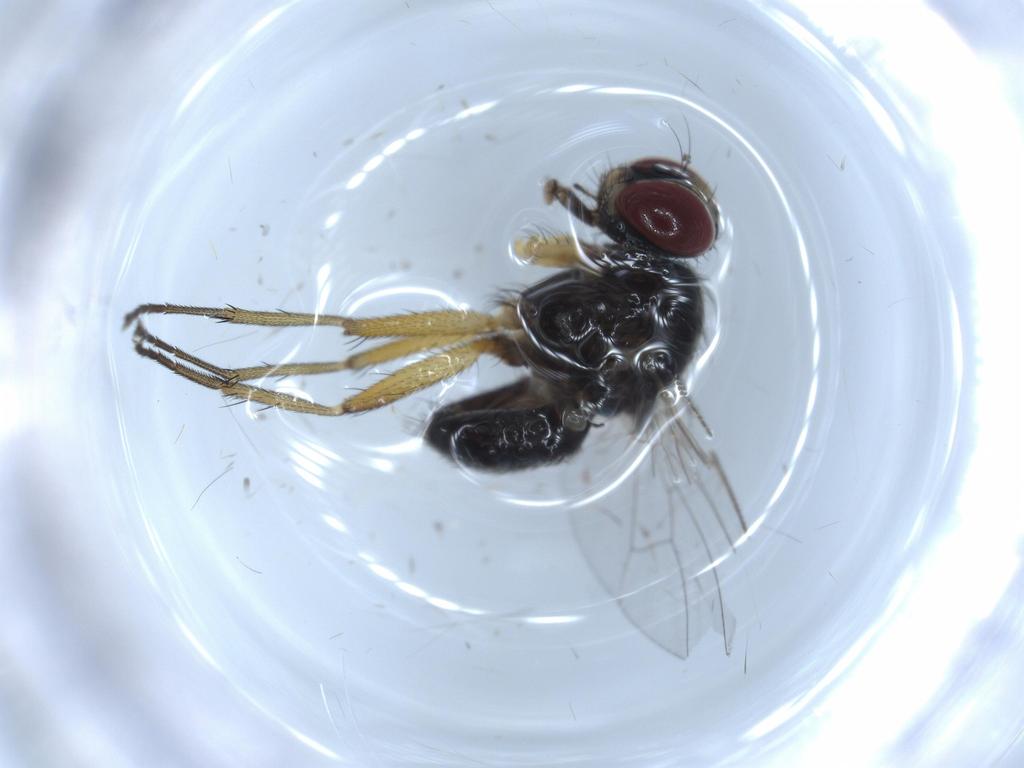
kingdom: Animalia
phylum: Arthropoda
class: Insecta
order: Diptera
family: Muscidae
